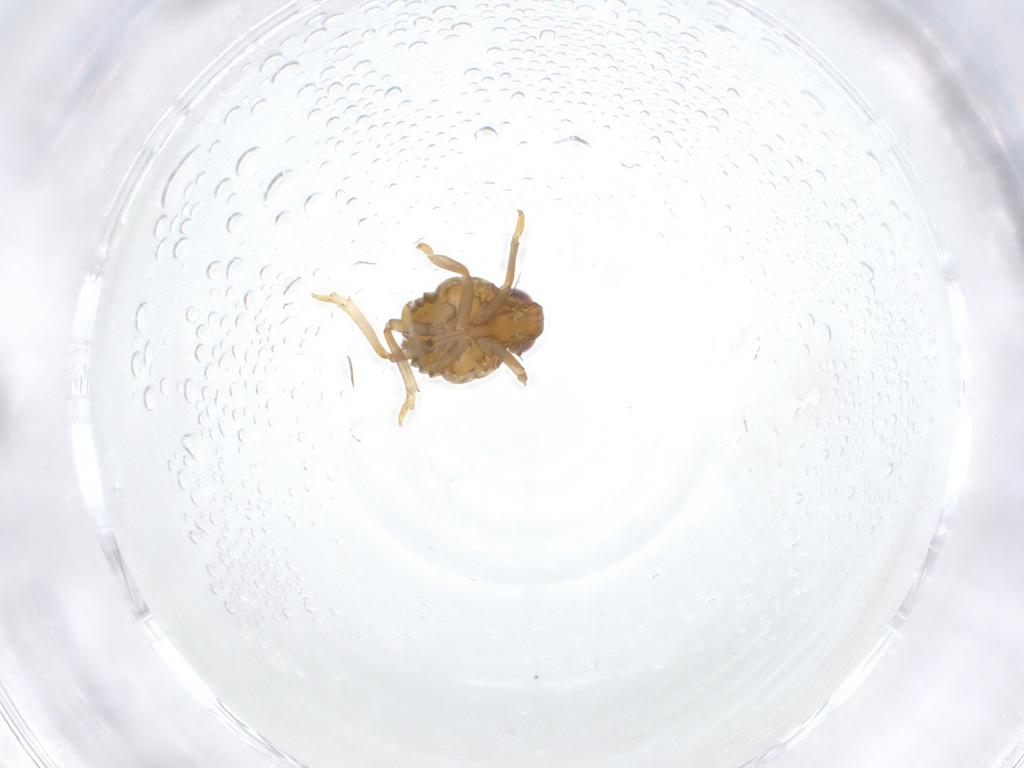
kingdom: Animalia
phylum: Arthropoda
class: Insecta
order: Hemiptera
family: Issidae
